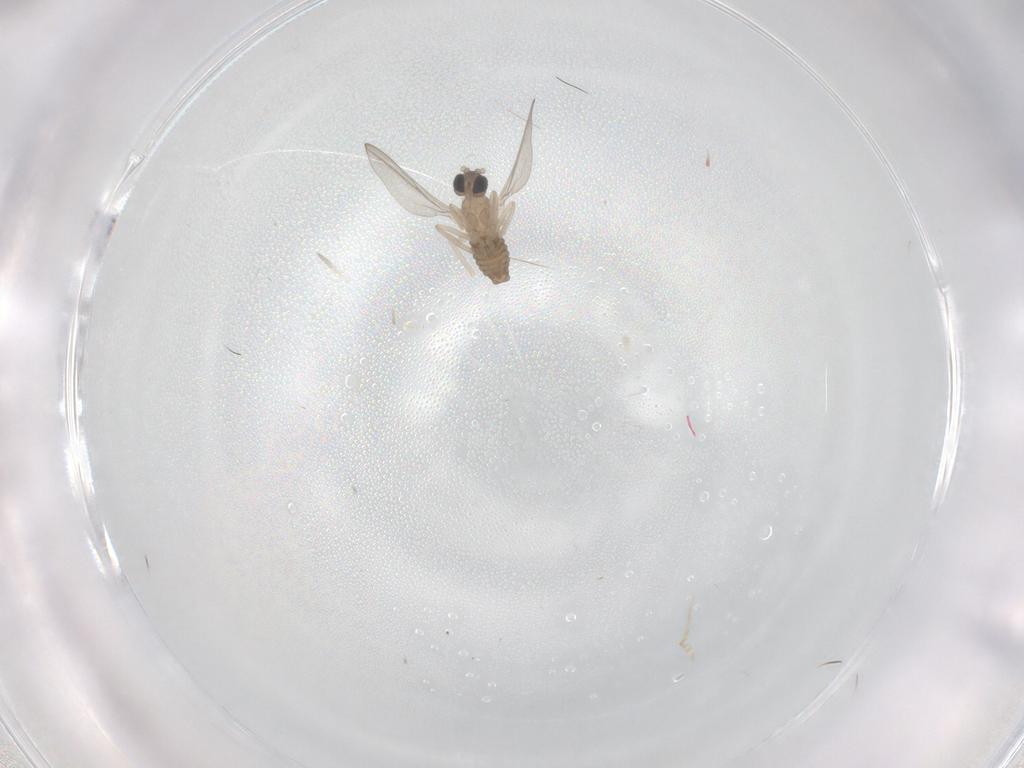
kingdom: Animalia
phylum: Arthropoda
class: Insecta
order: Diptera
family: Cecidomyiidae
